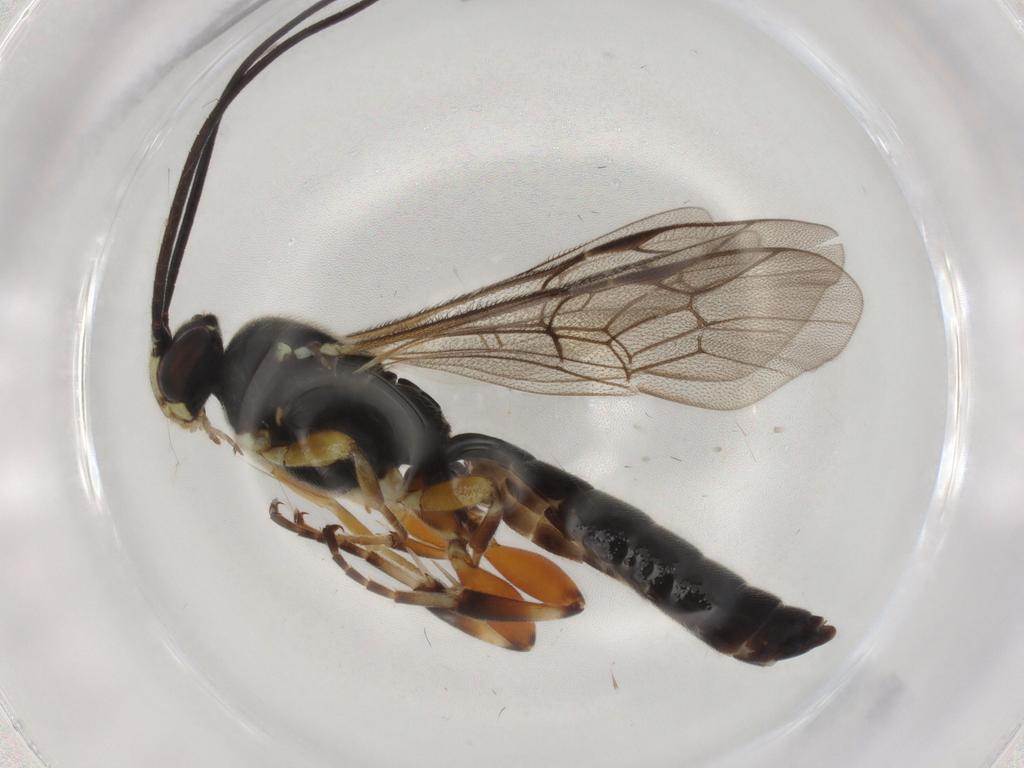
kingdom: Animalia
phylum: Arthropoda
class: Insecta
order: Hymenoptera
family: Ichneumonidae
